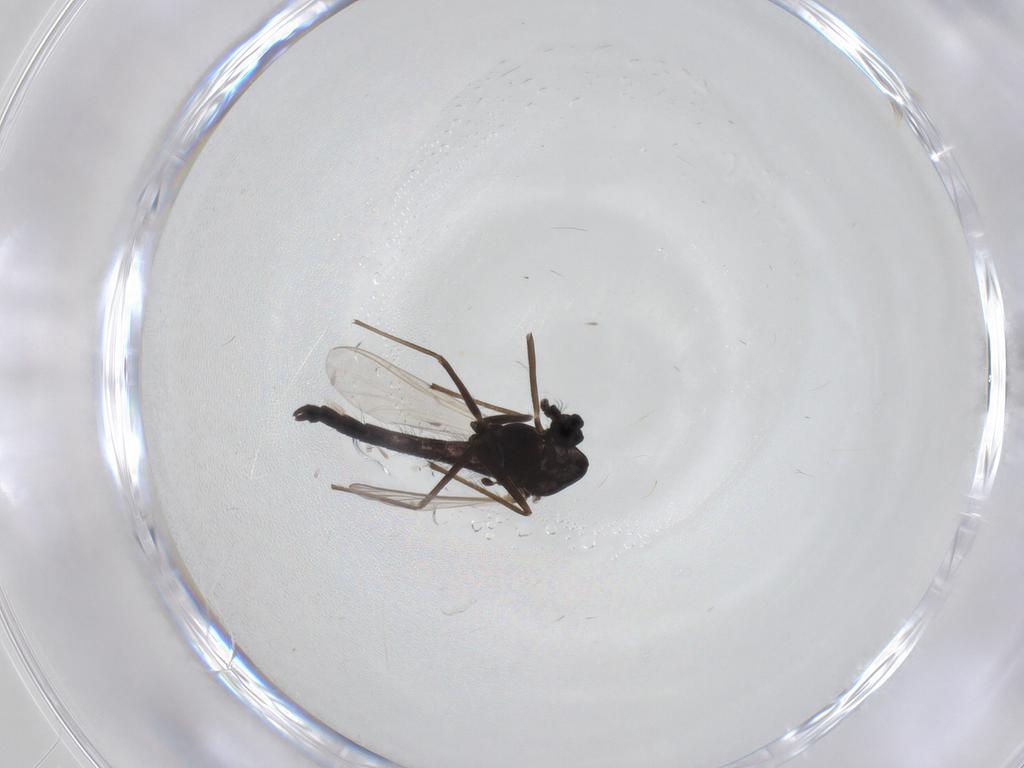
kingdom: Animalia
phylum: Arthropoda
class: Insecta
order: Diptera
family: Chironomidae
